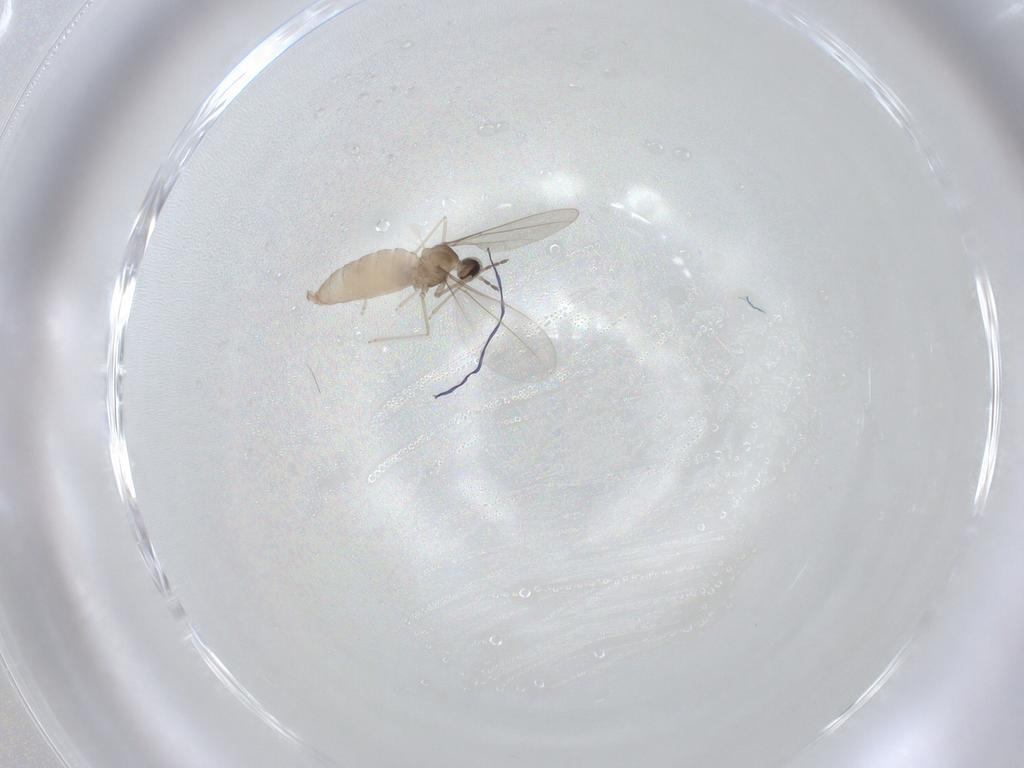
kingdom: Animalia
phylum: Arthropoda
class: Insecta
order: Diptera
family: Cecidomyiidae
